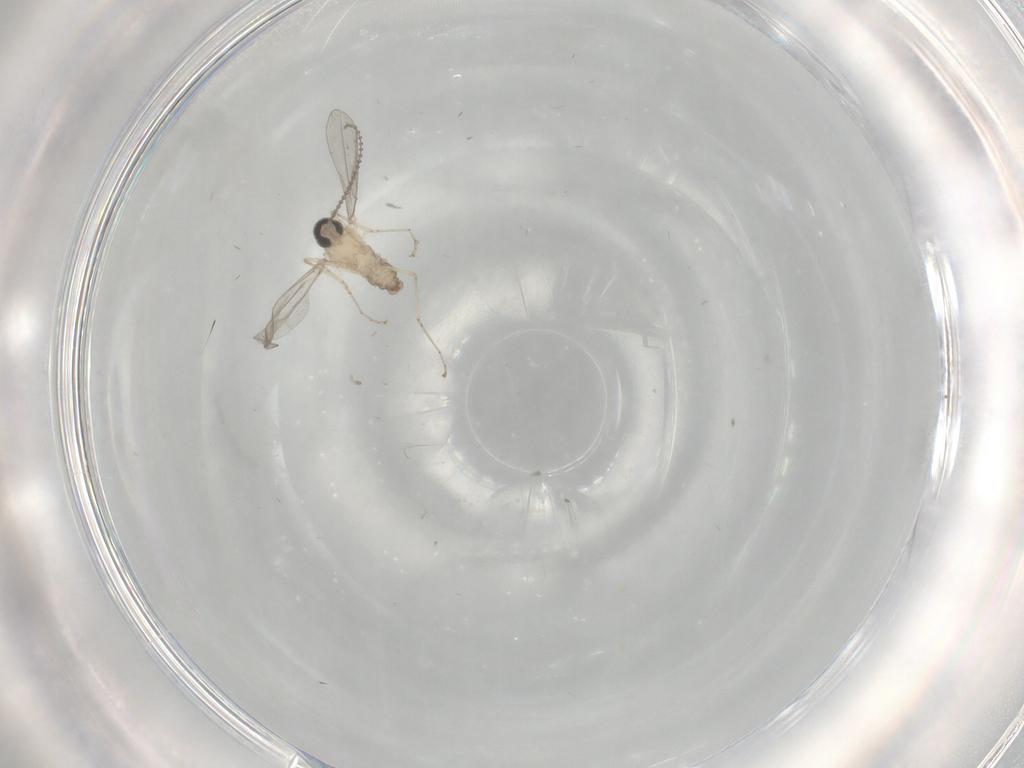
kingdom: Animalia
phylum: Arthropoda
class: Insecta
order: Diptera
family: Cecidomyiidae
